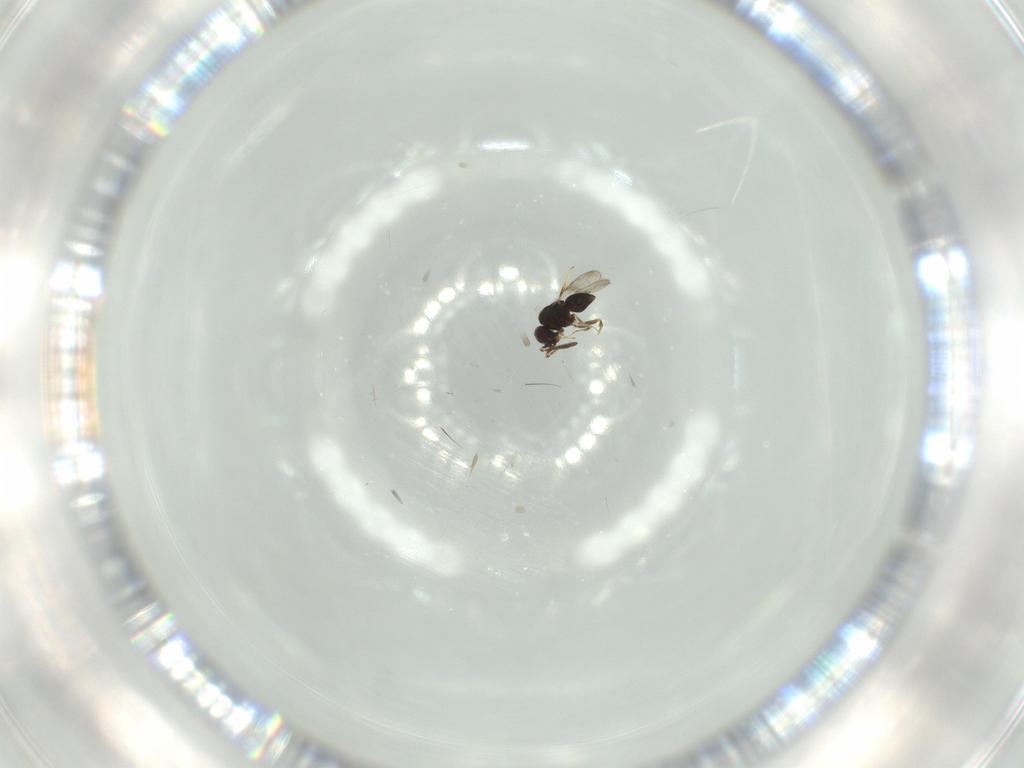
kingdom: Animalia
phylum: Arthropoda
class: Insecta
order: Hymenoptera
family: Bethylidae
